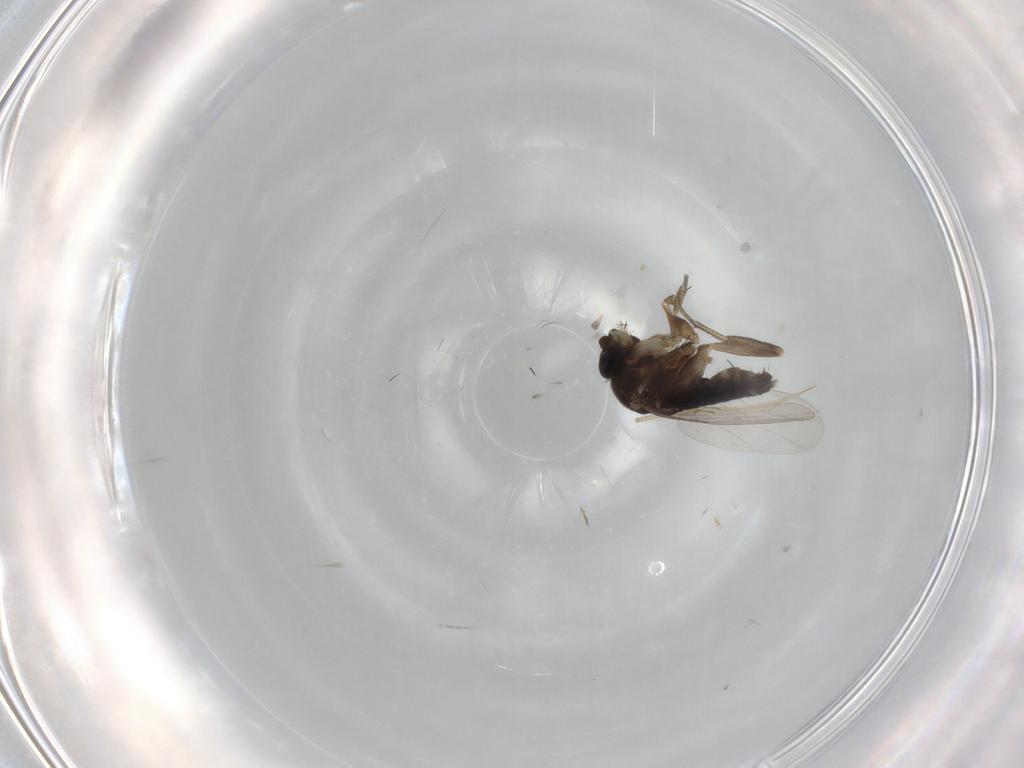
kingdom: Animalia
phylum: Arthropoda
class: Insecta
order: Diptera
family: Phoridae
